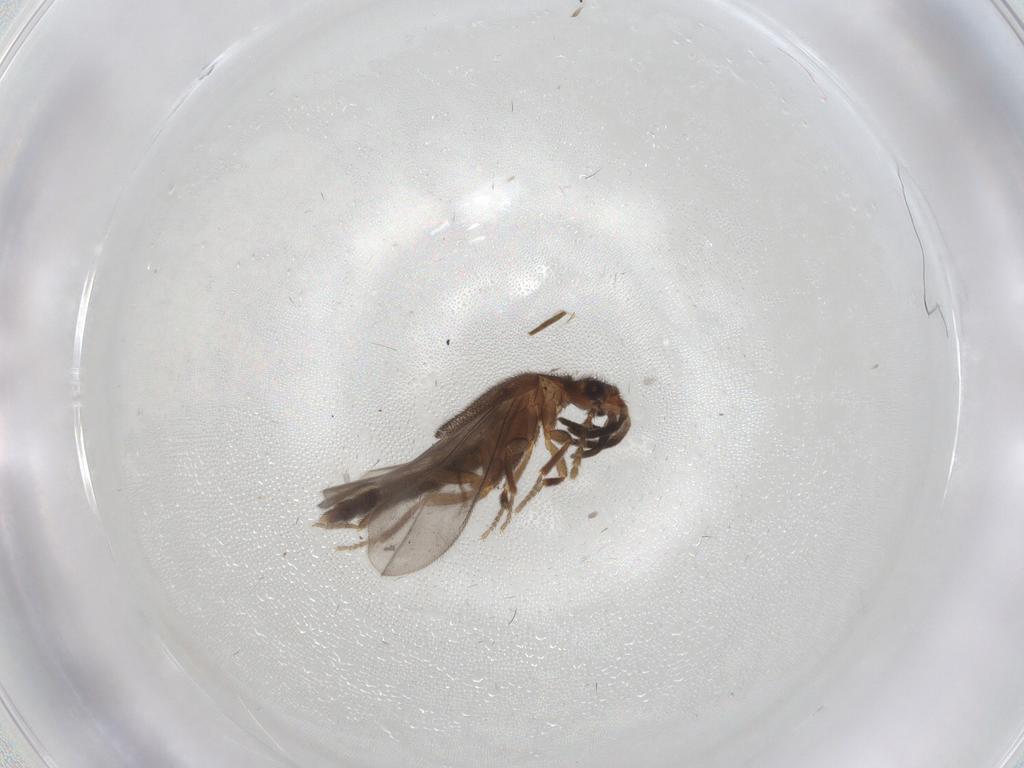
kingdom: Animalia
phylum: Arthropoda
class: Insecta
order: Coleoptera
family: Omethidae
